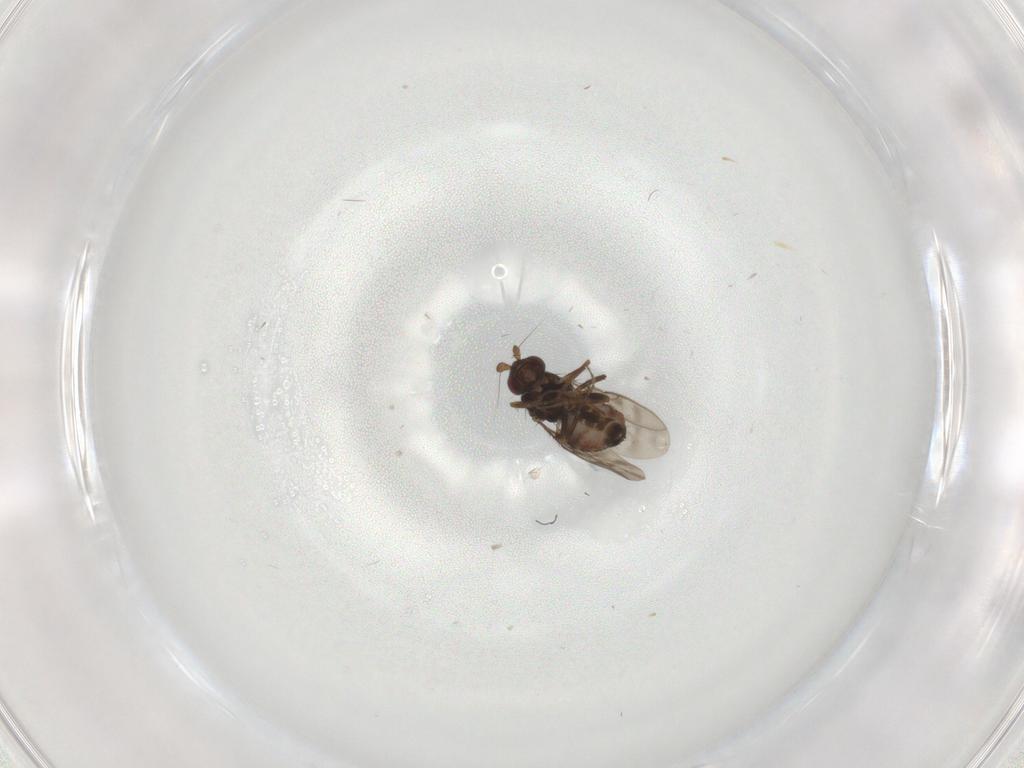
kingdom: Animalia
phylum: Arthropoda
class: Insecta
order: Diptera
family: Sphaeroceridae
